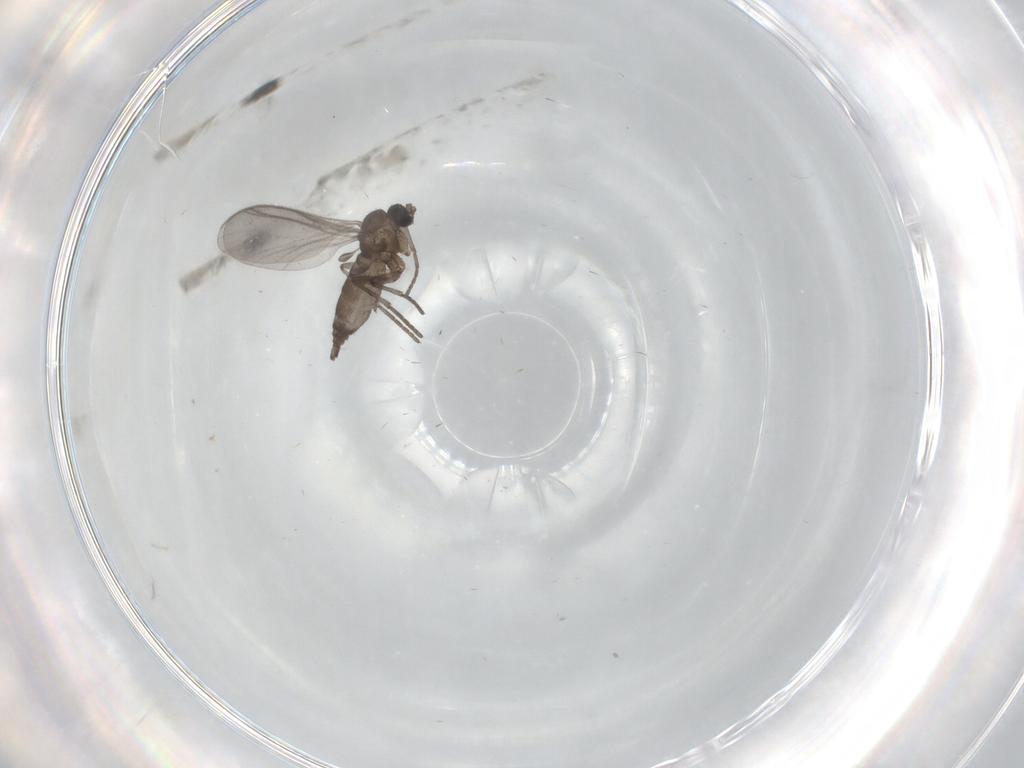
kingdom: Animalia
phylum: Arthropoda
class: Insecta
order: Diptera
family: Sciaridae
